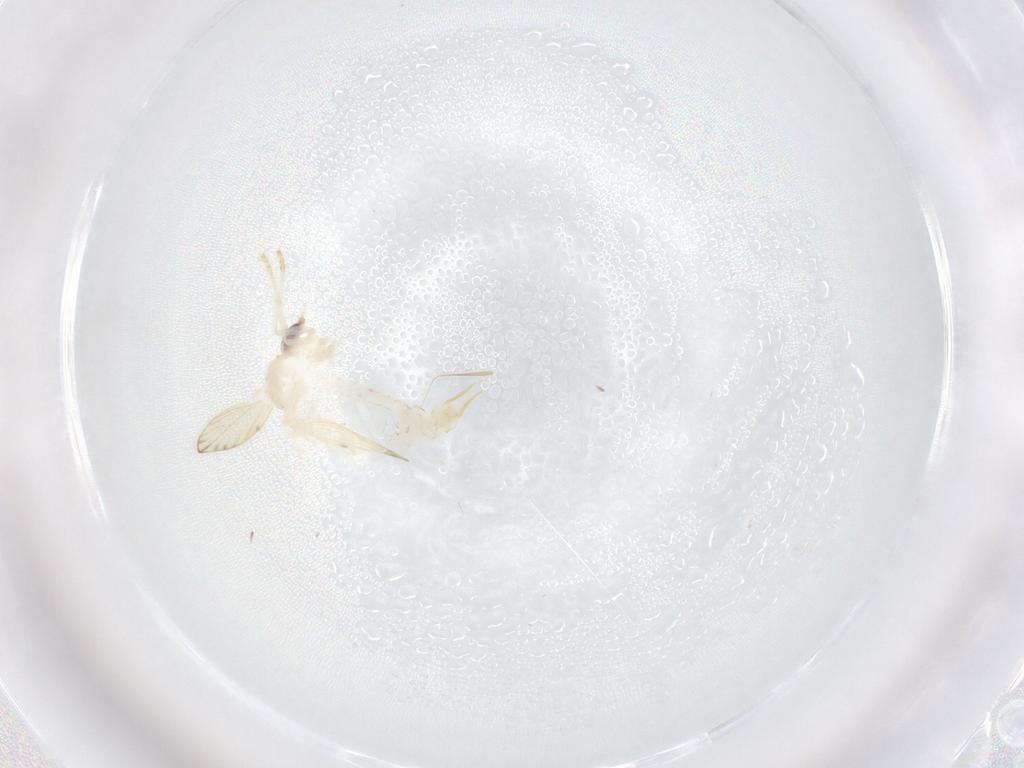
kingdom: Animalia
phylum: Arthropoda
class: Insecta
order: Diptera
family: Psychodidae
